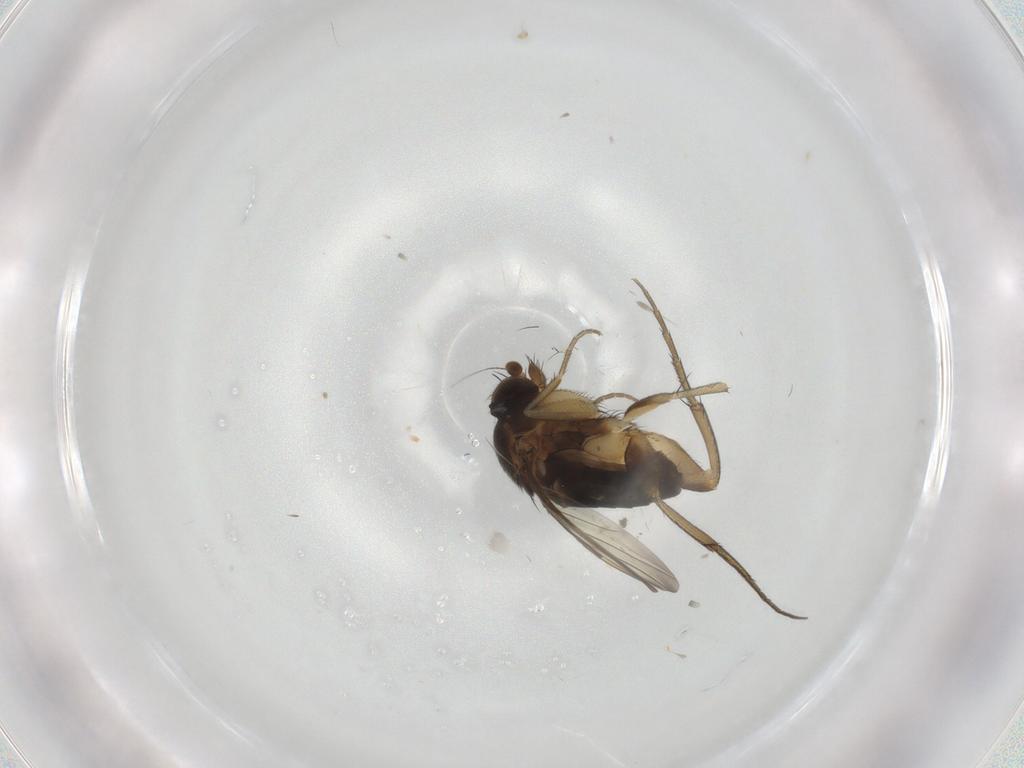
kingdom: Animalia
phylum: Arthropoda
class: Insecta
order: Diptera
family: Phoridae
